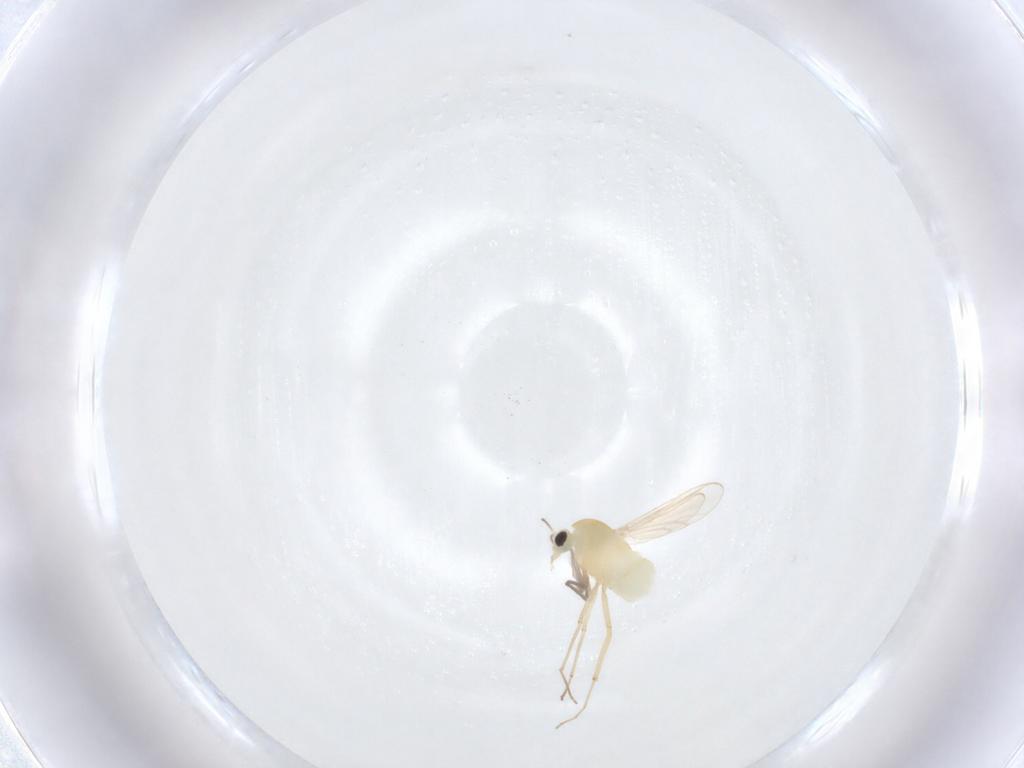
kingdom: Animalia
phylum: Arthropoda
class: Insecta
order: Diptera
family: Chironomidae
